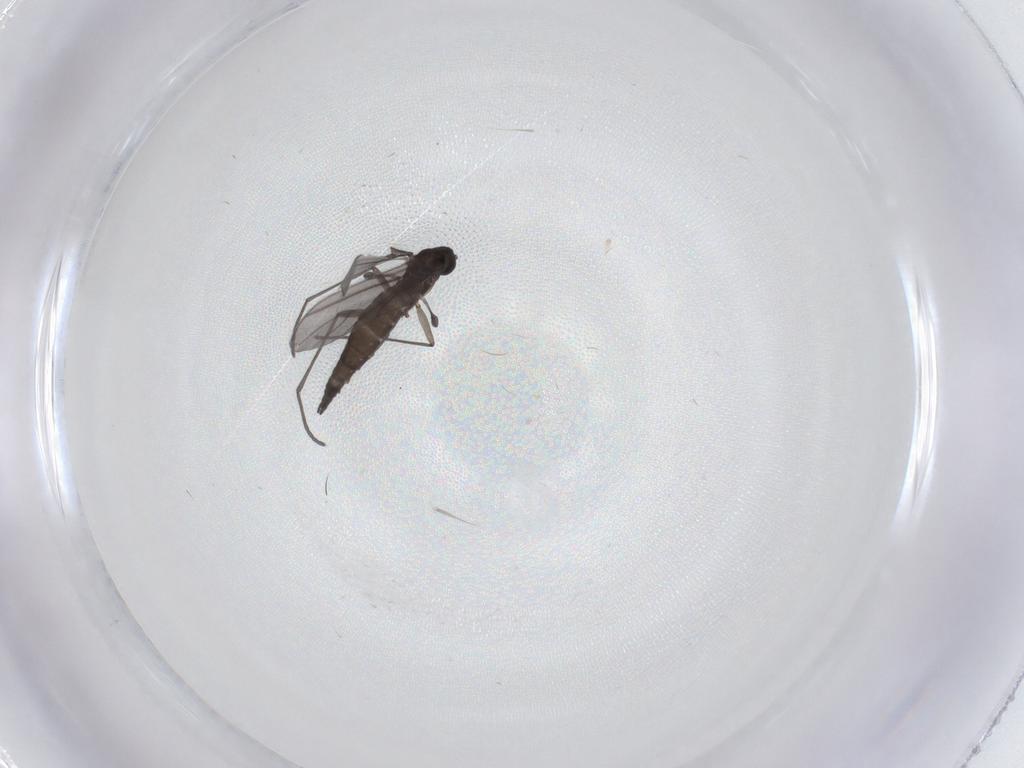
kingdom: Animalia
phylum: Arthropoda
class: Insecta
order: Diptera
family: Sciaridae
